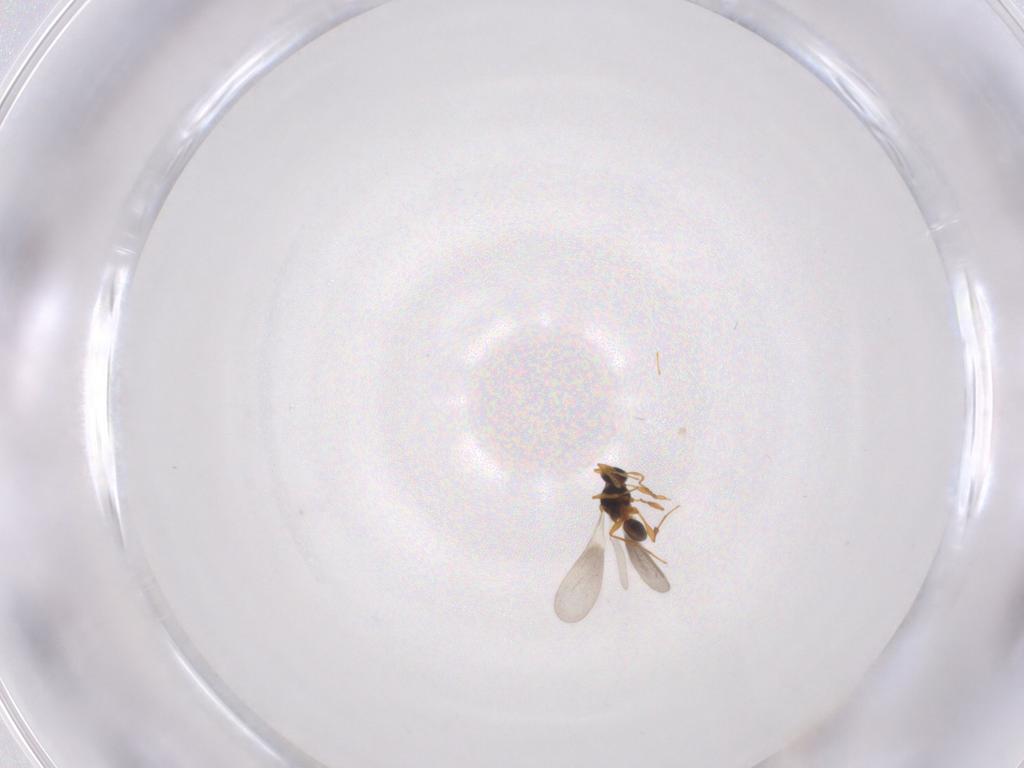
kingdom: Animalia
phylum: Arthropoda
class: Insecta
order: Hymenoptera
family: Platygastridae
